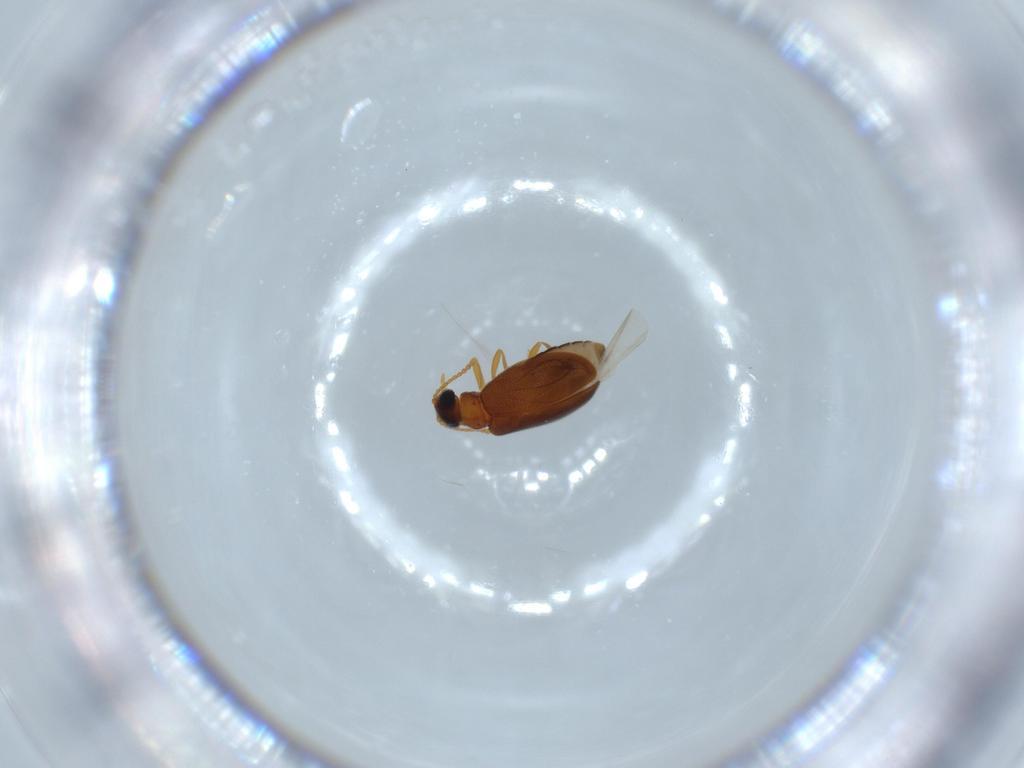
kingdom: Animalia
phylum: Arthropoda
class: Insecta
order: Coleoptera
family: Aderidae
